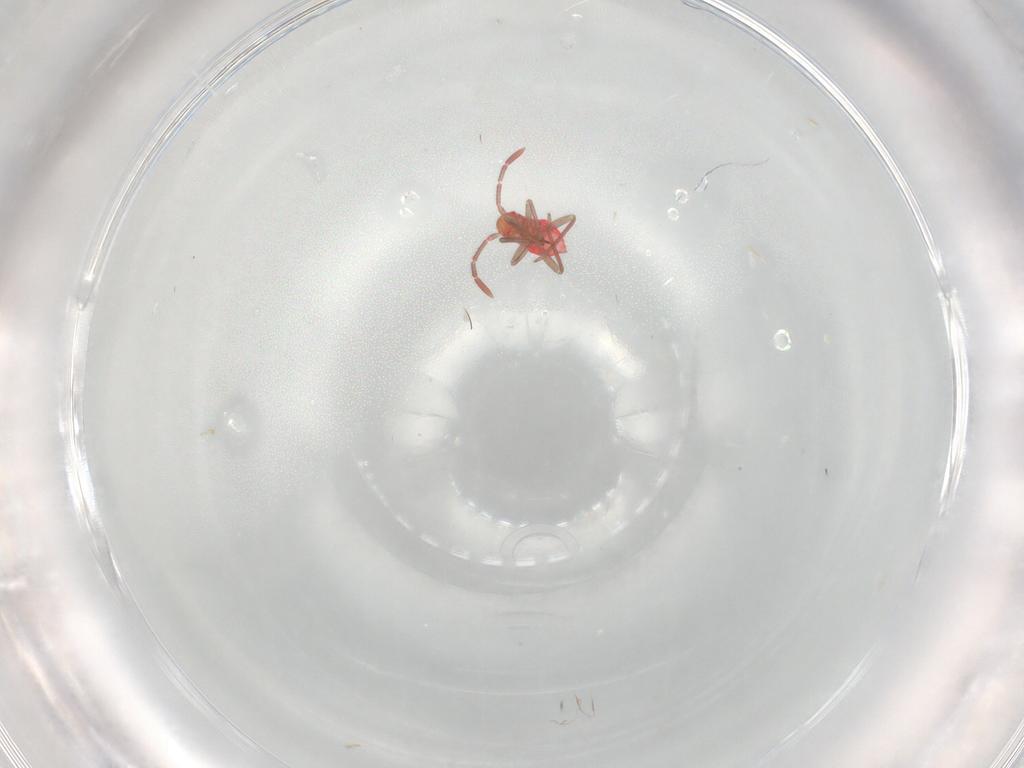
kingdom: Animalia
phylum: Arthropoda
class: Insecta
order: Hemiptera
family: Miridae
